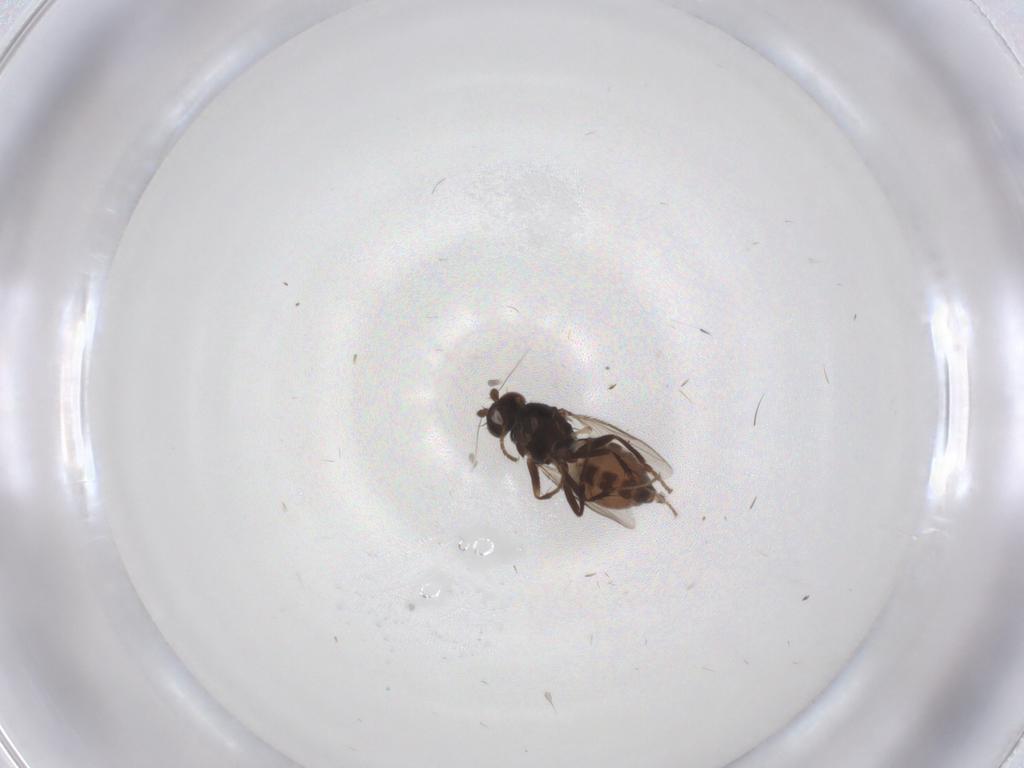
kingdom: Animalia
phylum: Arthropoda
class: Insecta
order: Diptera
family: Sphaeroceridae
